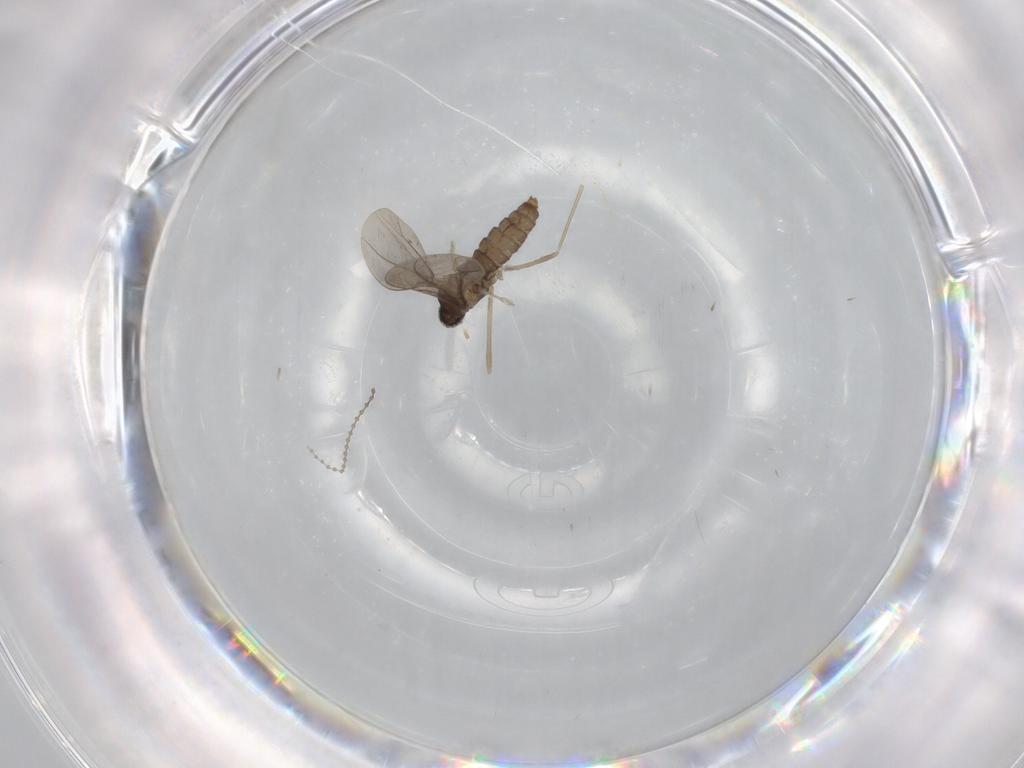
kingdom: Animalia
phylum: Arthropoda
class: Insecta
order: Diptera
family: Cecidomyiidae
